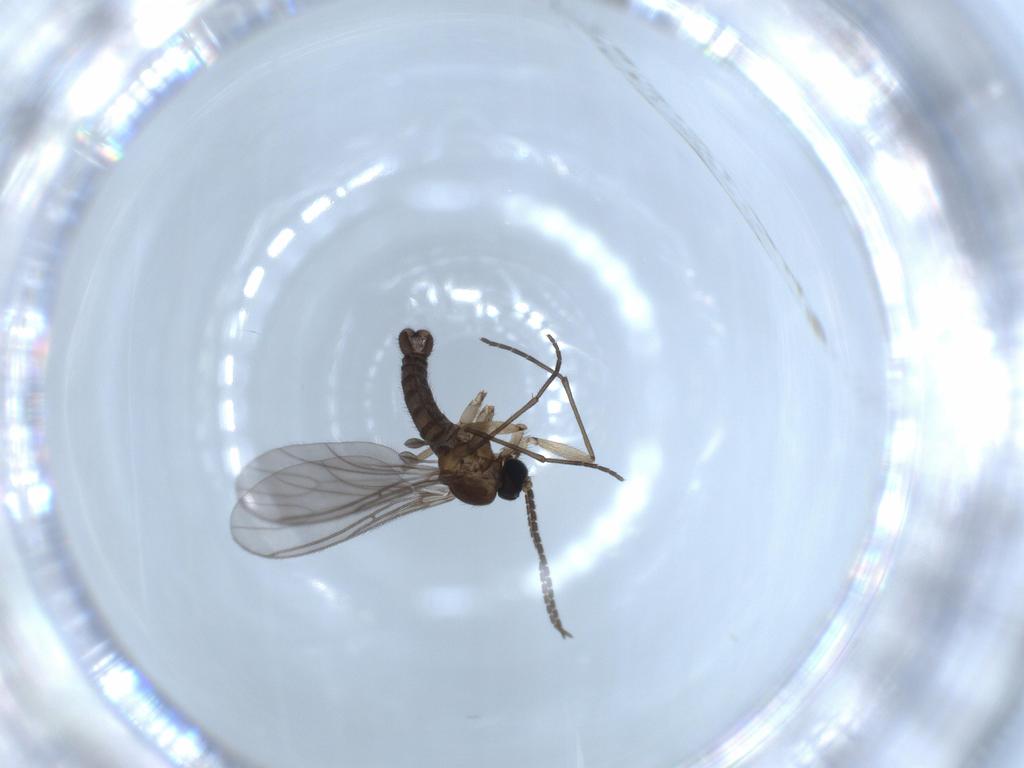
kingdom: Animalia
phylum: Arthropoda
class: Insecta
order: Diptera
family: Sciaridae
